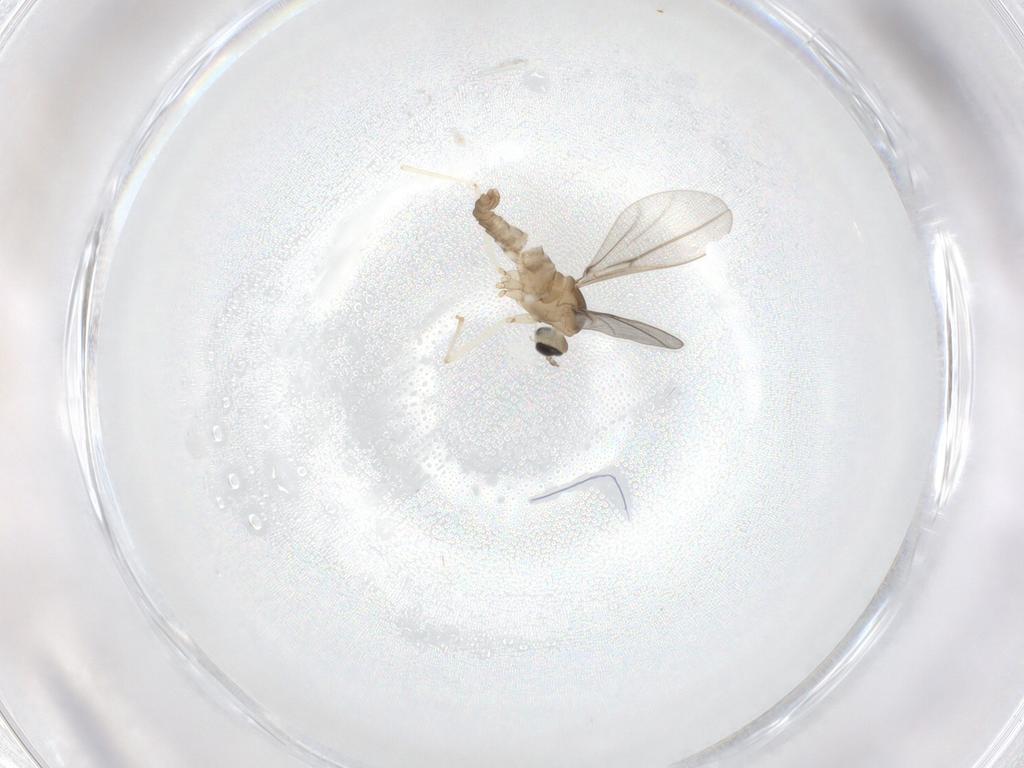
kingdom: Animalia
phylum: Arthropoda
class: Insecta
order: Diptera
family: Cecidomyiidae
